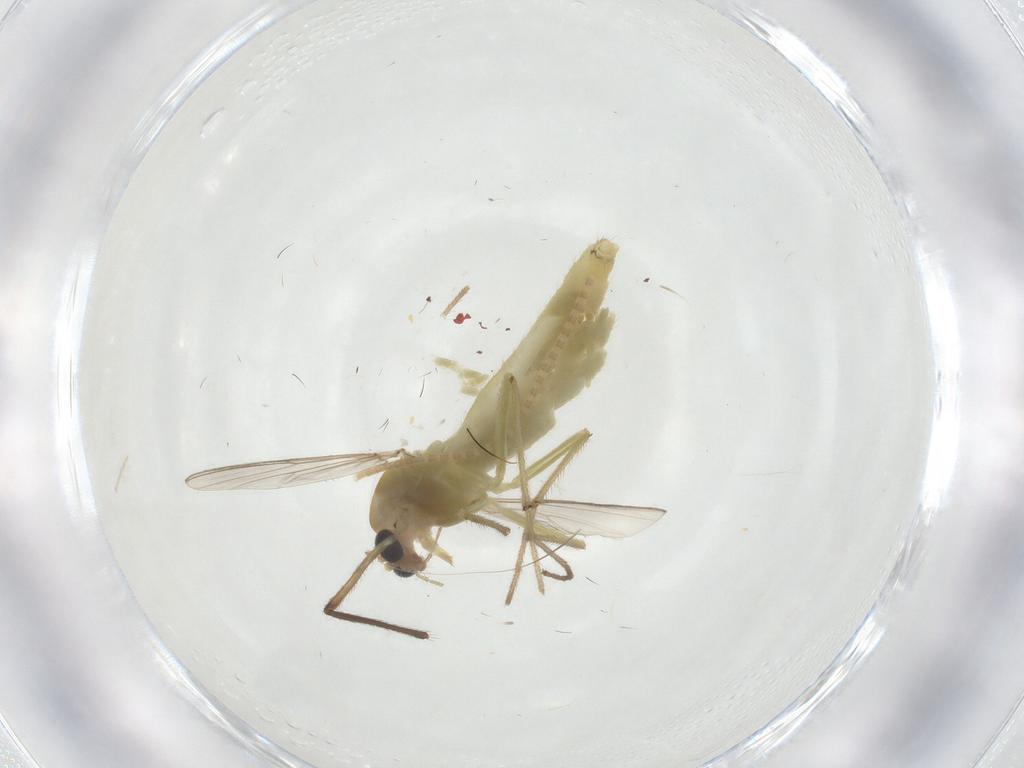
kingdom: Animalia
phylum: Arthropoda
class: Insecta
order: Diptera
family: Chironomidae
